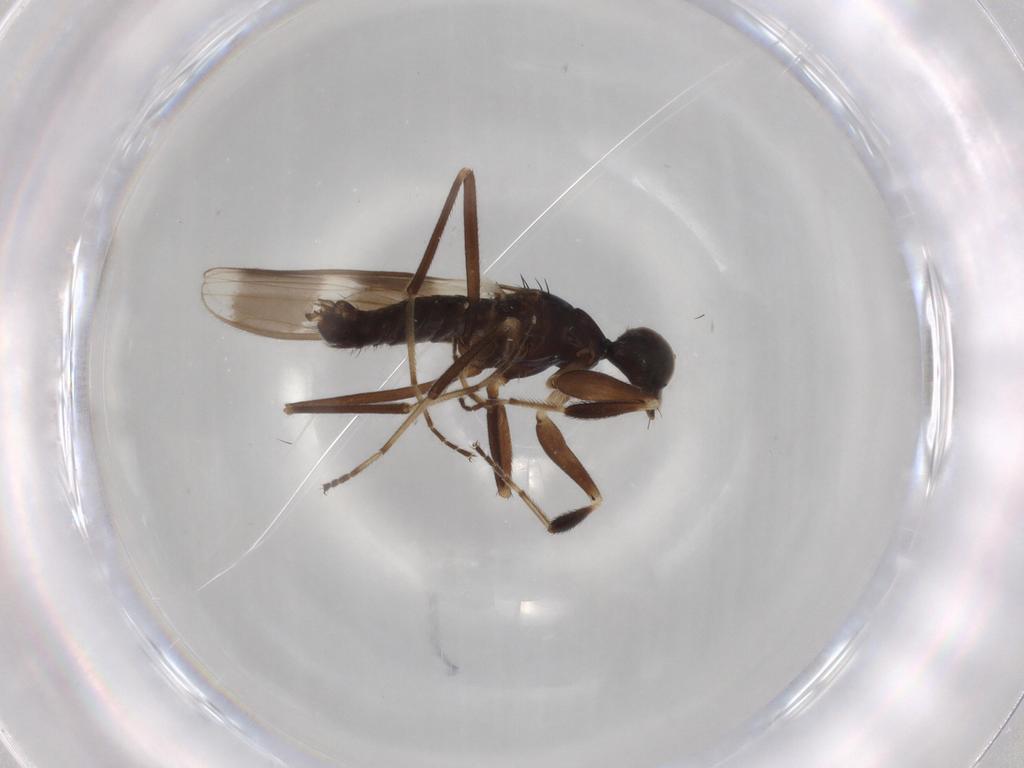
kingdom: Animalia
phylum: Arthropoda
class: Insecta
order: Diptera
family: Hybotidae
